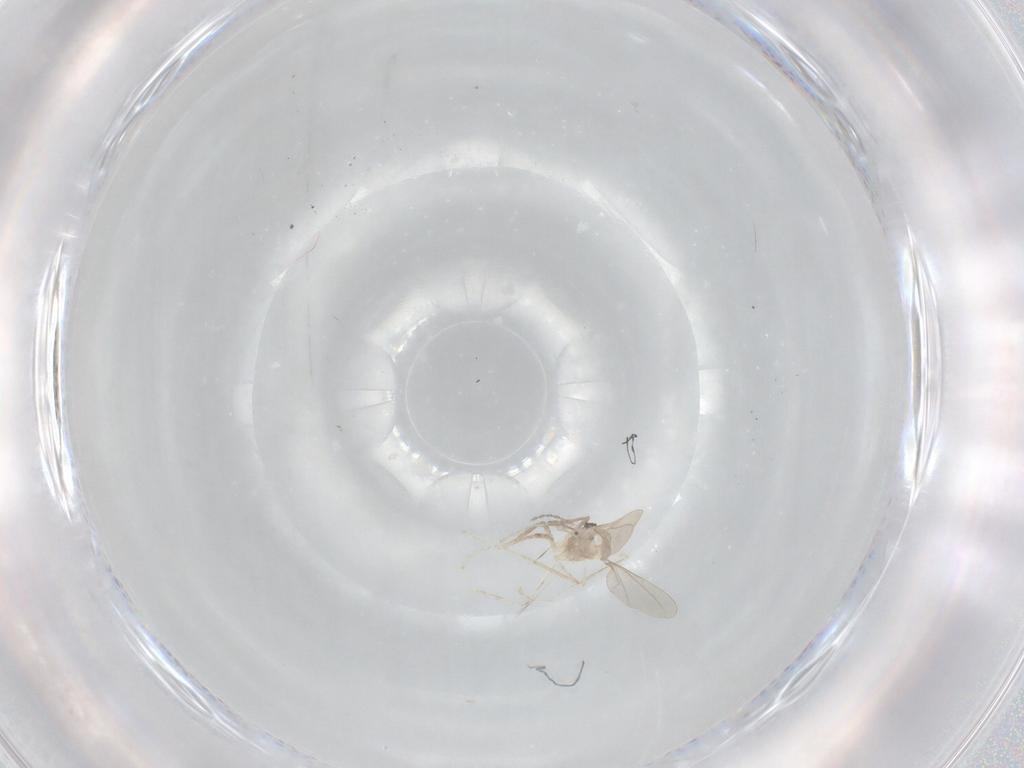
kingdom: Animalia
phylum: Arthropoda
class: Insecta
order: Diptera
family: Cecidomyiidae
